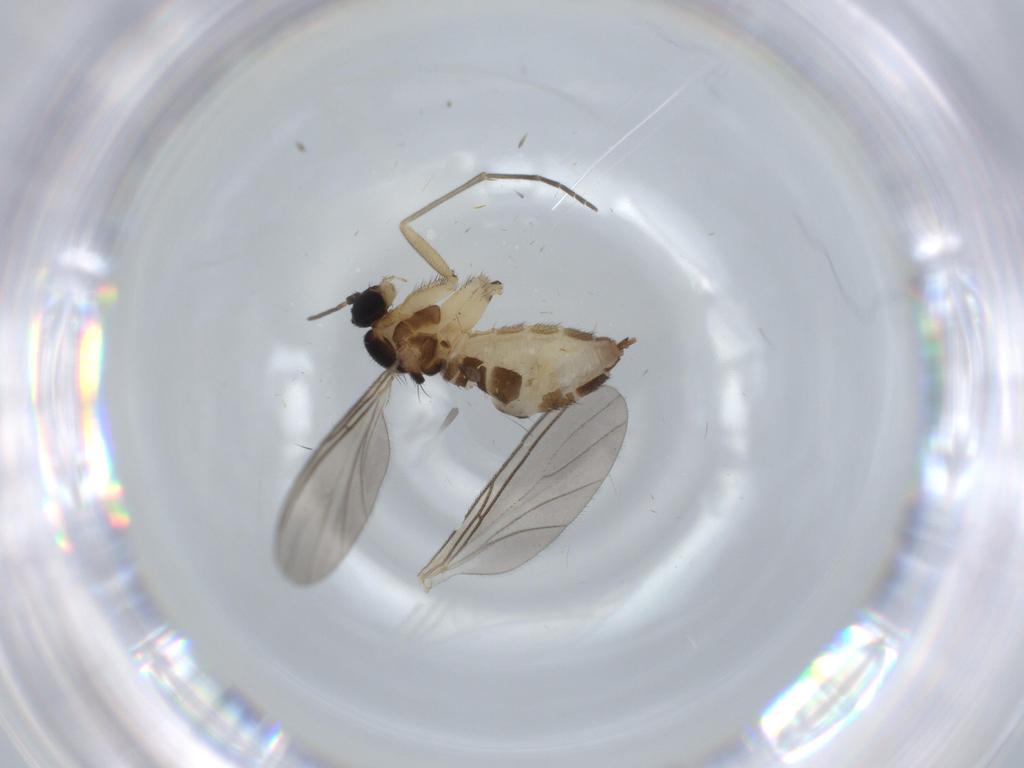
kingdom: Animalia
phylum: Arthropoda
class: Insecta
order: Diptera
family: Sciaridae
